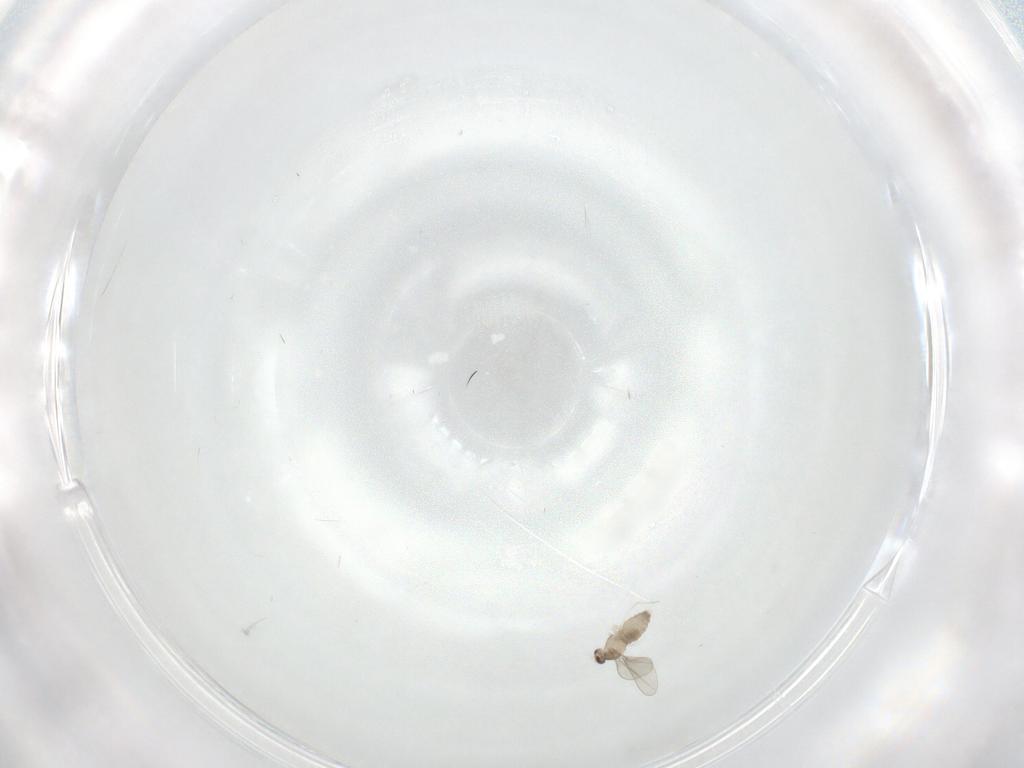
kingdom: Animalia
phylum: Arthropoda
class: Insecta
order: Diptera
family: Cecidomyiidae
